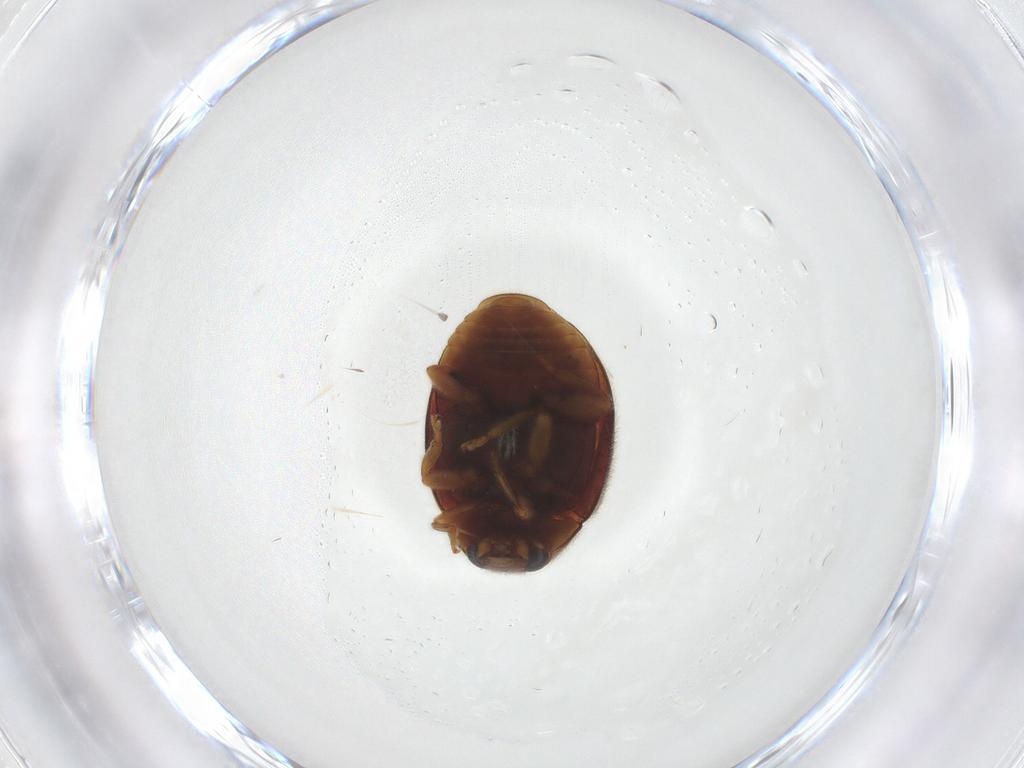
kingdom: Animalia
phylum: Arthropoda
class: Insecta
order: Coleoptera
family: Coccinellidae
